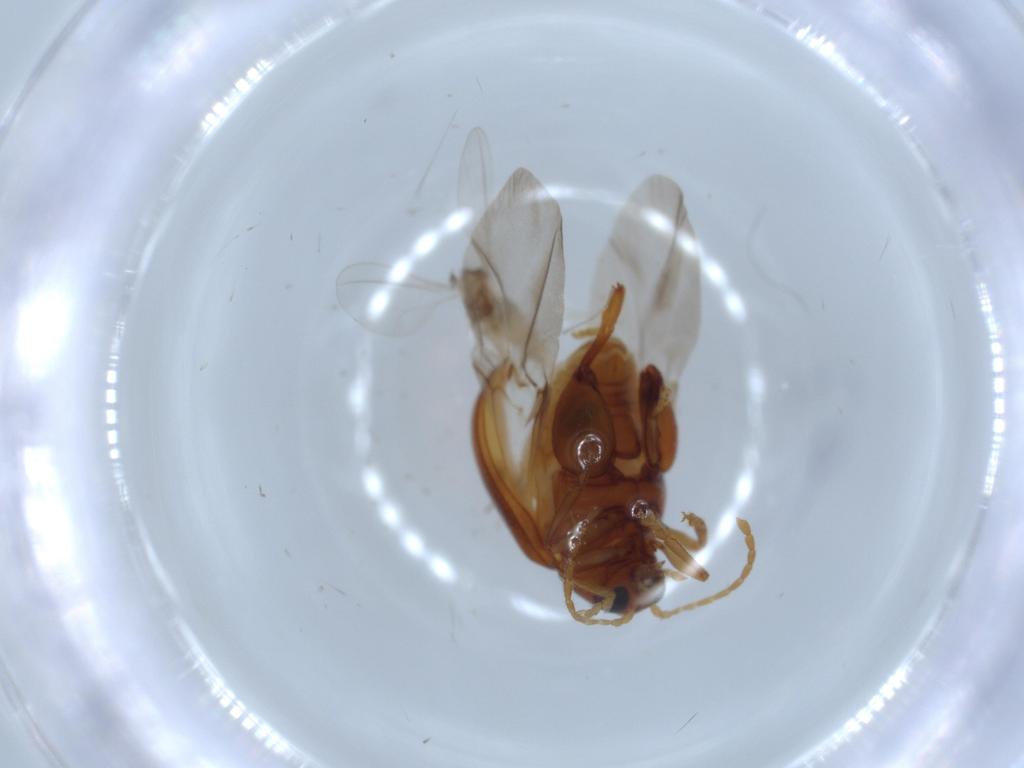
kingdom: Animalia
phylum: Arthropoda
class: Insecta
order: Coleoptera
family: Chrysomelidae
